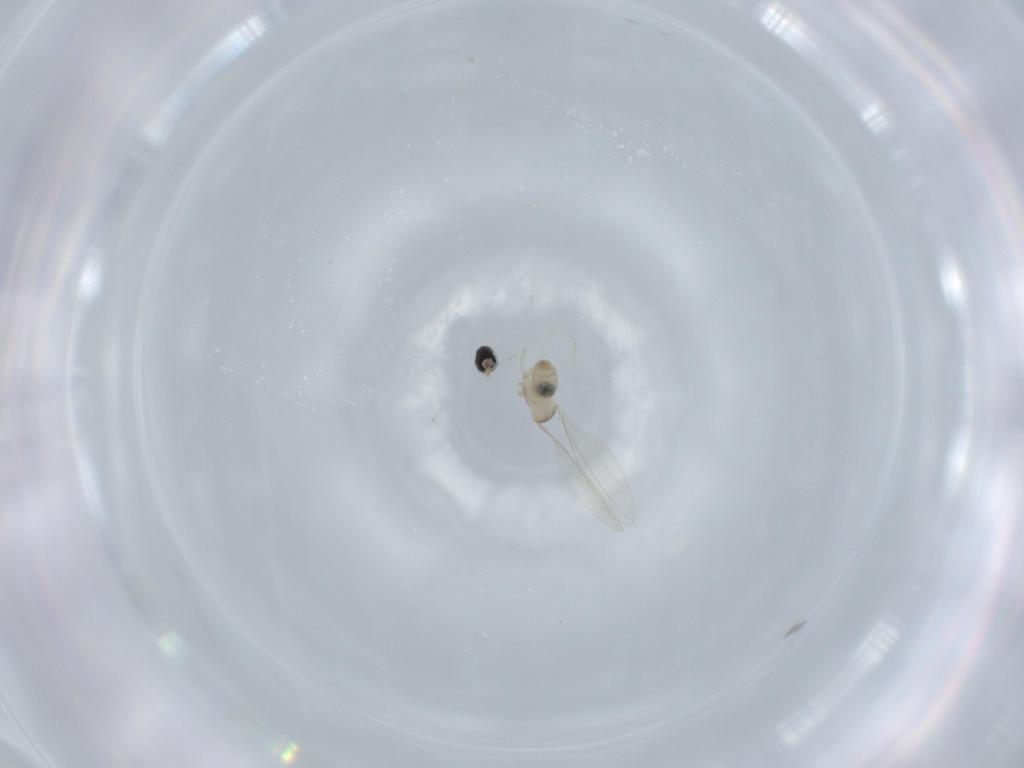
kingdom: Animalia
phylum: Arthropoda
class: Insecta
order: Diptera
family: Cecidomyiidae
